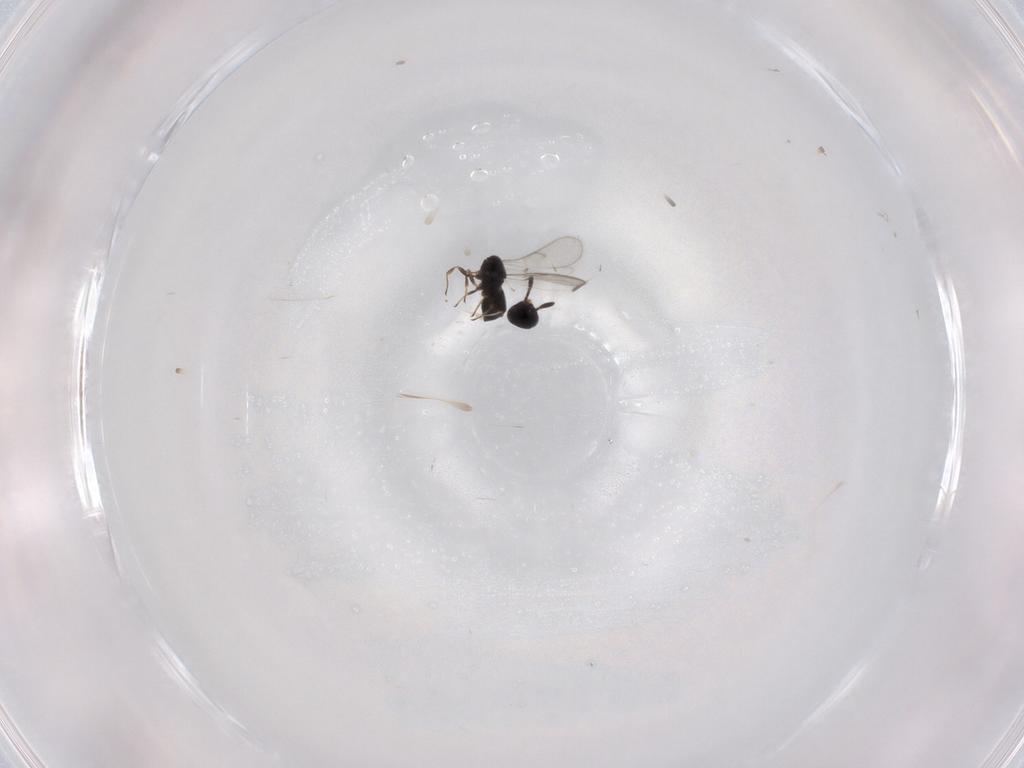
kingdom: Animalia
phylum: Arthropoda
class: Insecta
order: Hymenoptera
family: Scelionidae
